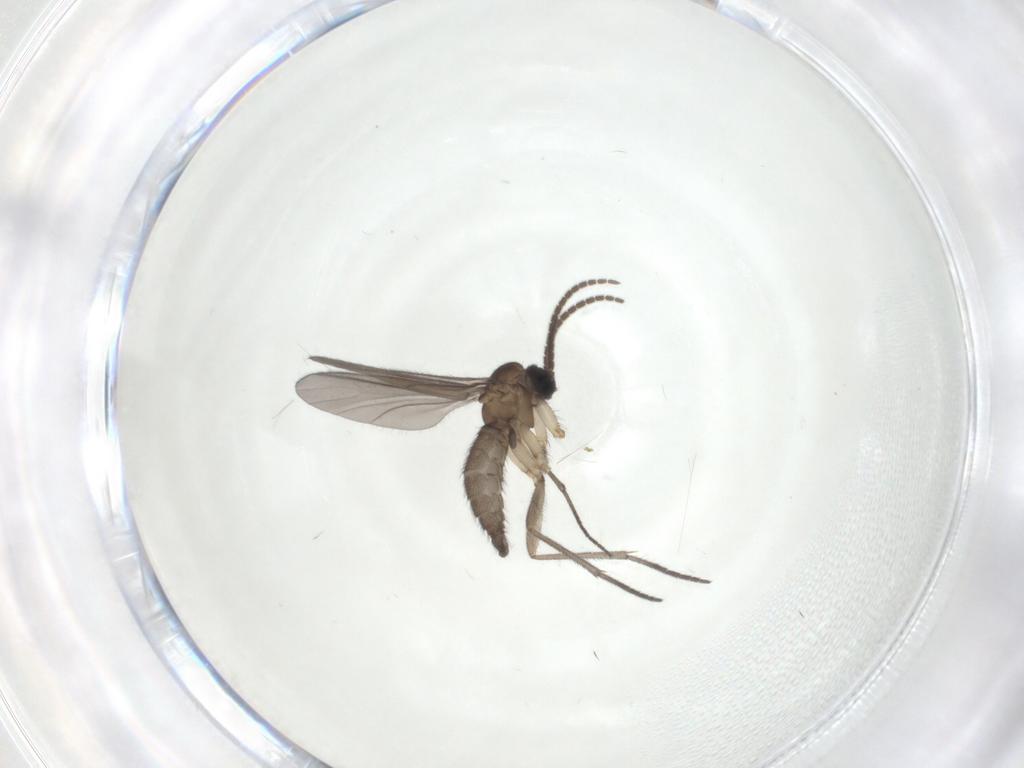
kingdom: Animalia
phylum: Arthropoda
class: Insecta
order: Diptera
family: Sciaridae
